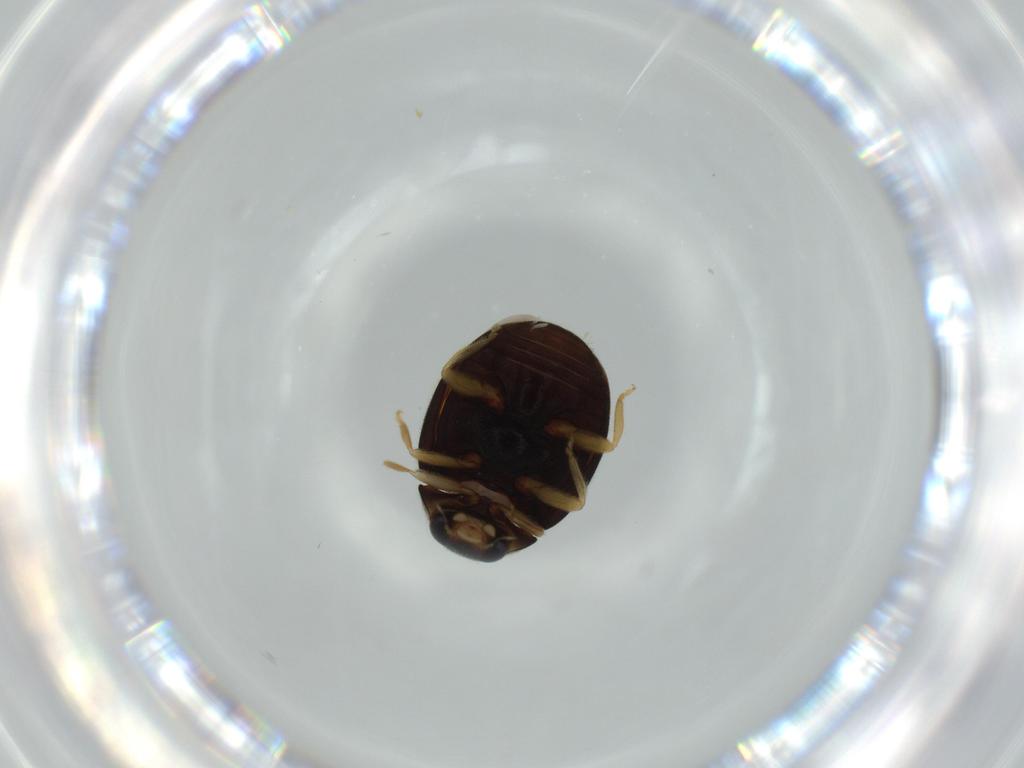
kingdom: Animalia
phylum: Arthropoda
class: Insecta
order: Coleoptera
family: Coccinellidae
